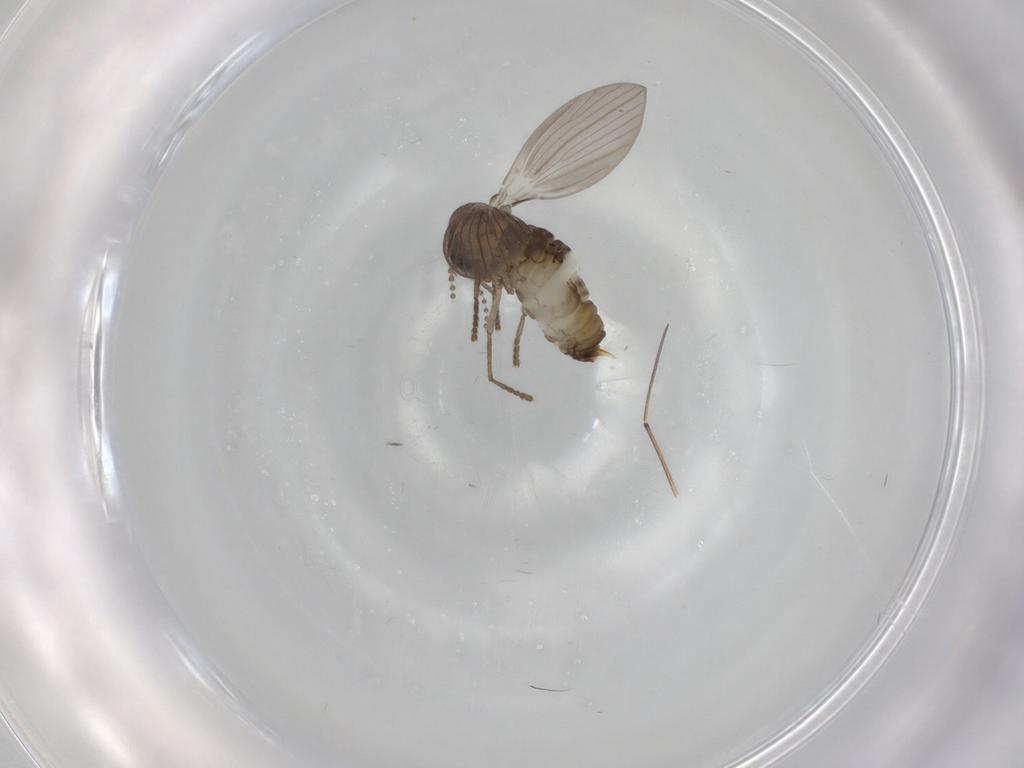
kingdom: Animalia
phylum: Arthropoda
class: Insecta
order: Diptera
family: Psychodidae
